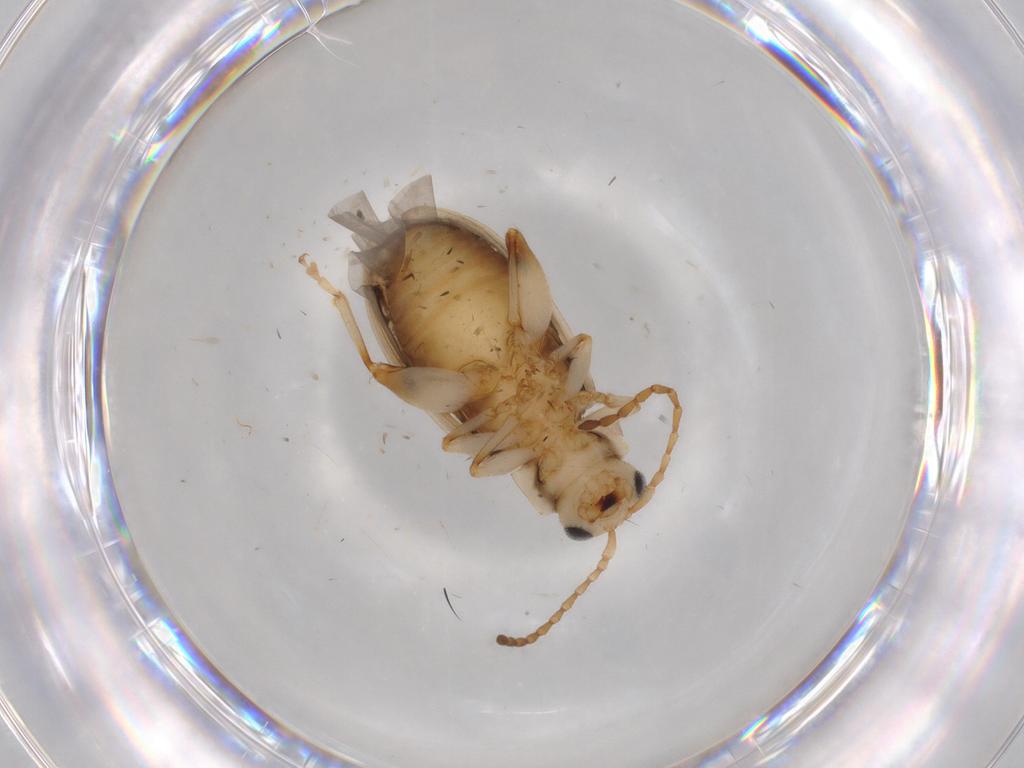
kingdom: Animalia
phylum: Arthropoda
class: Insecta
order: Coleoptera
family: Chrysomelidae
